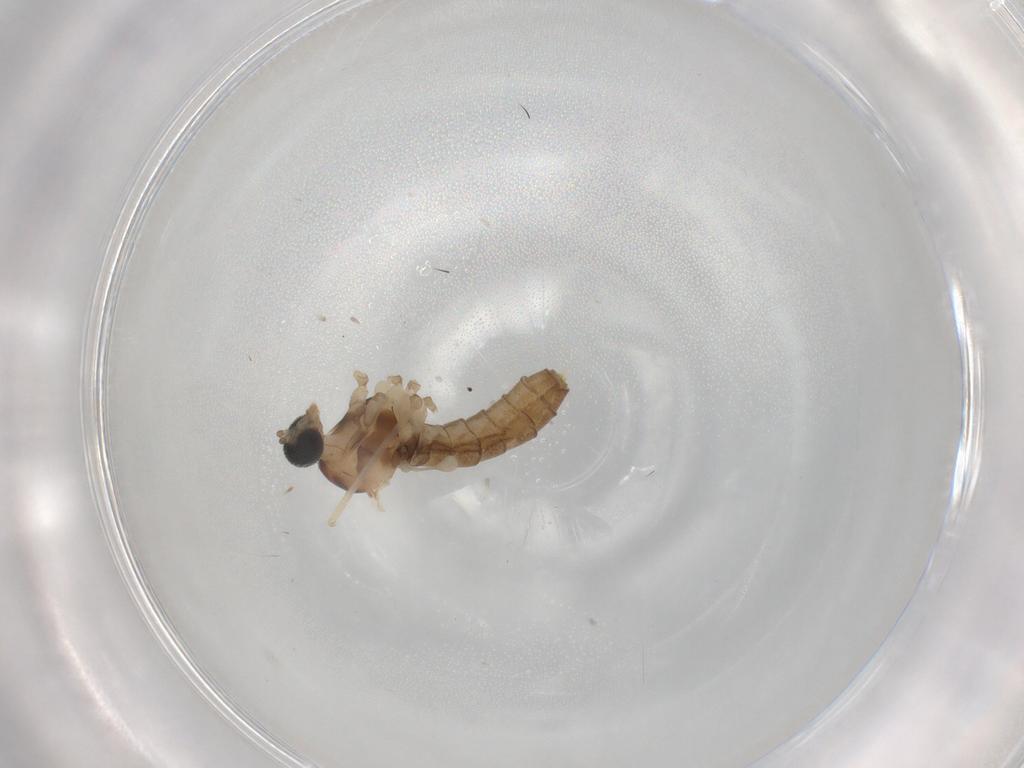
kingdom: Animalia
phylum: Arthropoda
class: Insecta
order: Diptera
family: Cecidomyiidae
